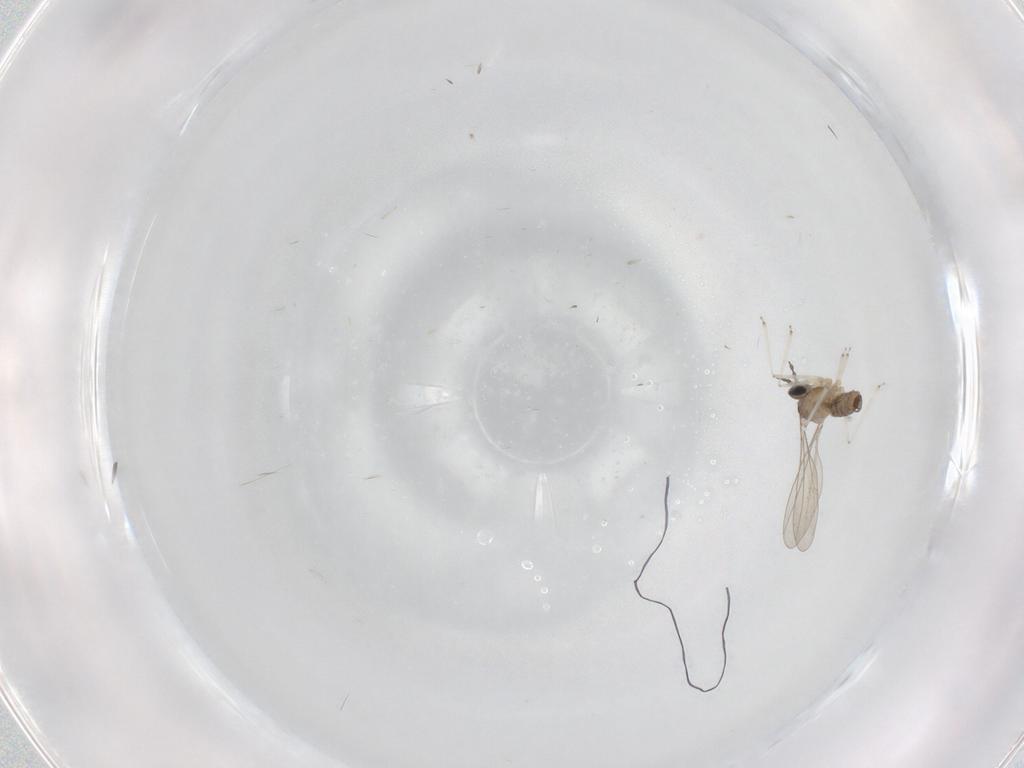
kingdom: Animalia
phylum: Arthropoda
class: Insecta
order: Diptera
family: Cecidomyiidae
